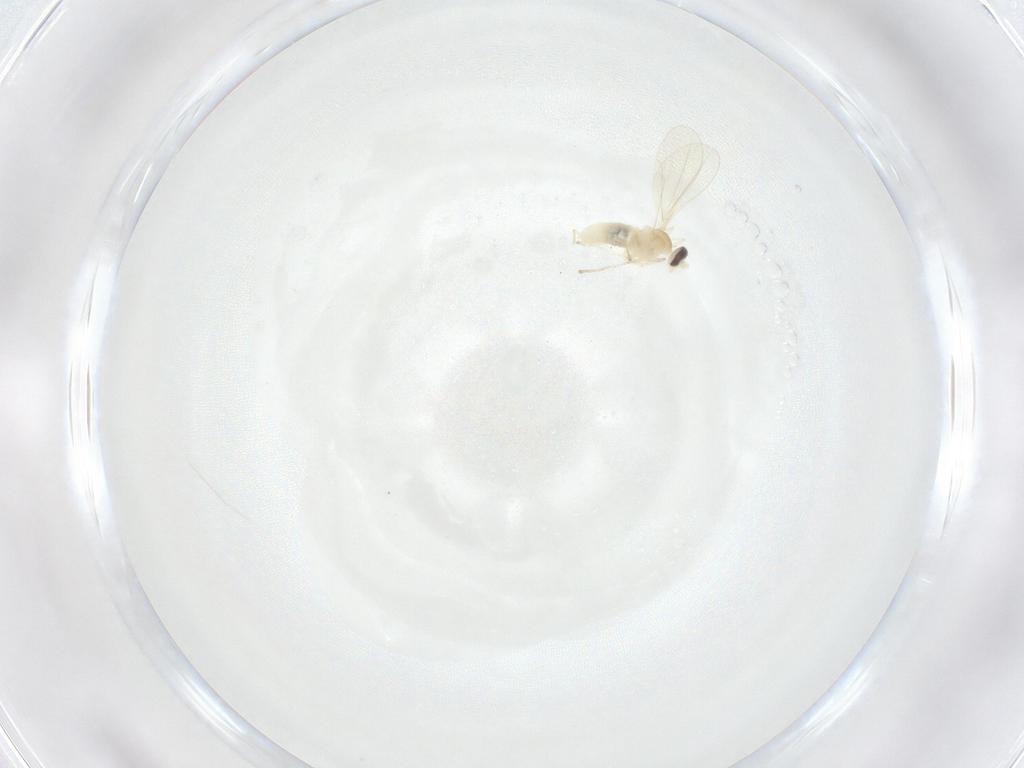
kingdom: Animalia
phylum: Arthropoda
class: Insecta
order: Diptera
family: Cecidomyiidae
